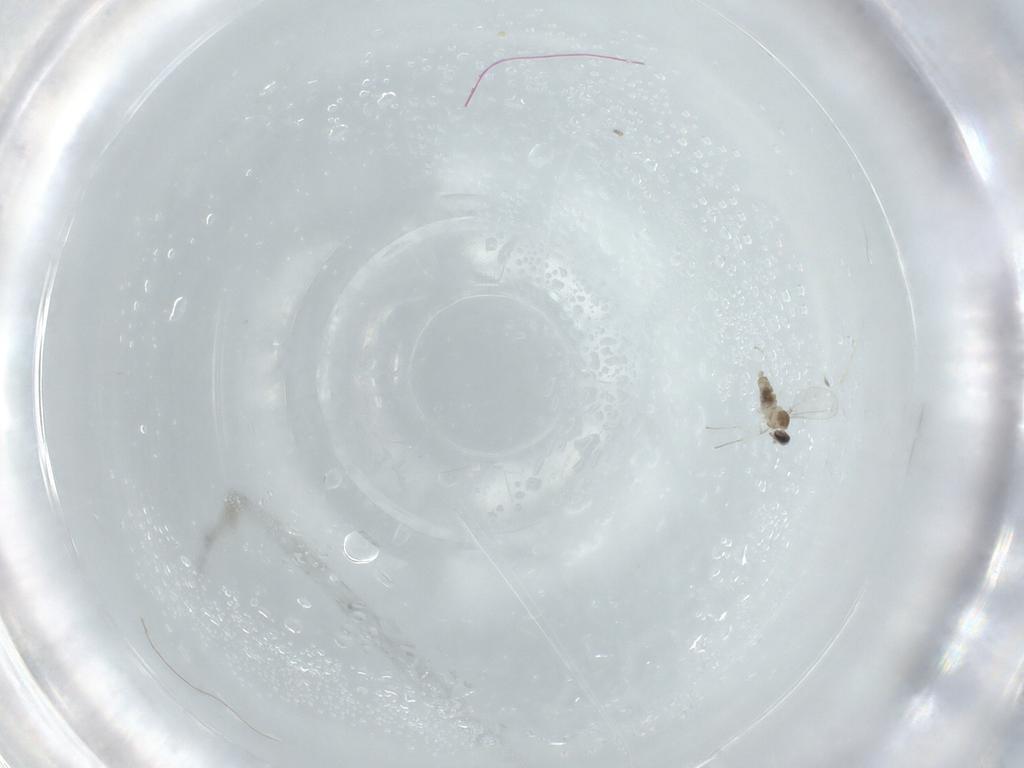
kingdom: Animalia
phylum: Arthropoda
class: Insecta
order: Diptera
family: Cecidomyiidae
